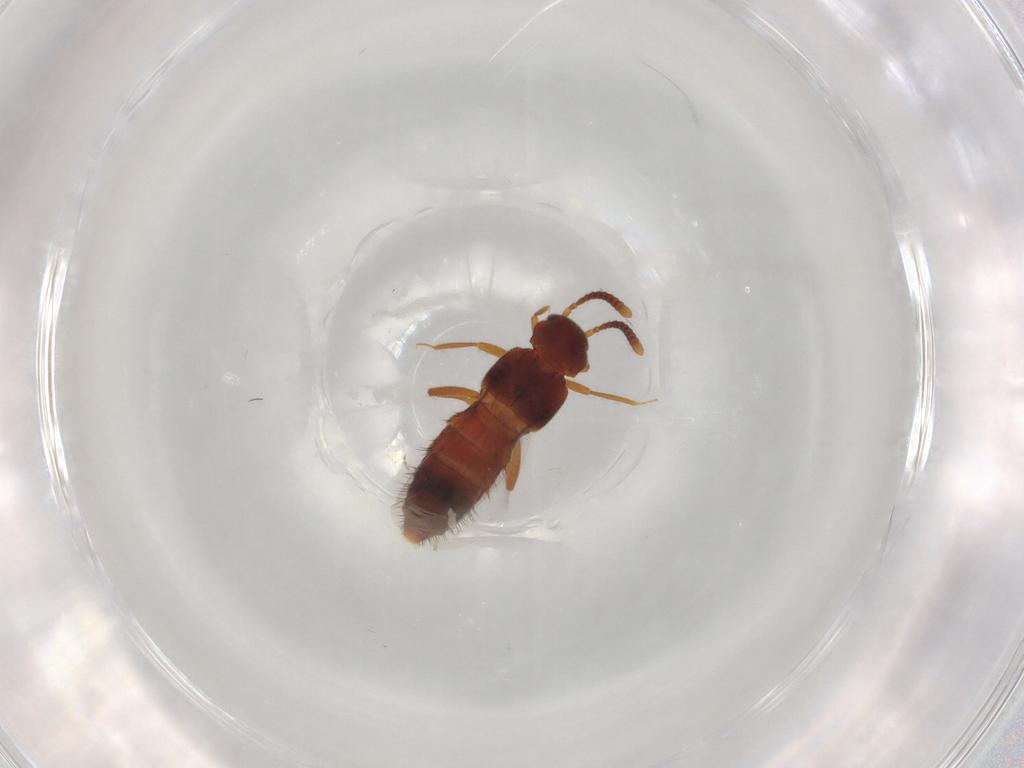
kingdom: Animalia
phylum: Arthropoda
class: Insecta
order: Coleoptera
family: Staphylinidae
